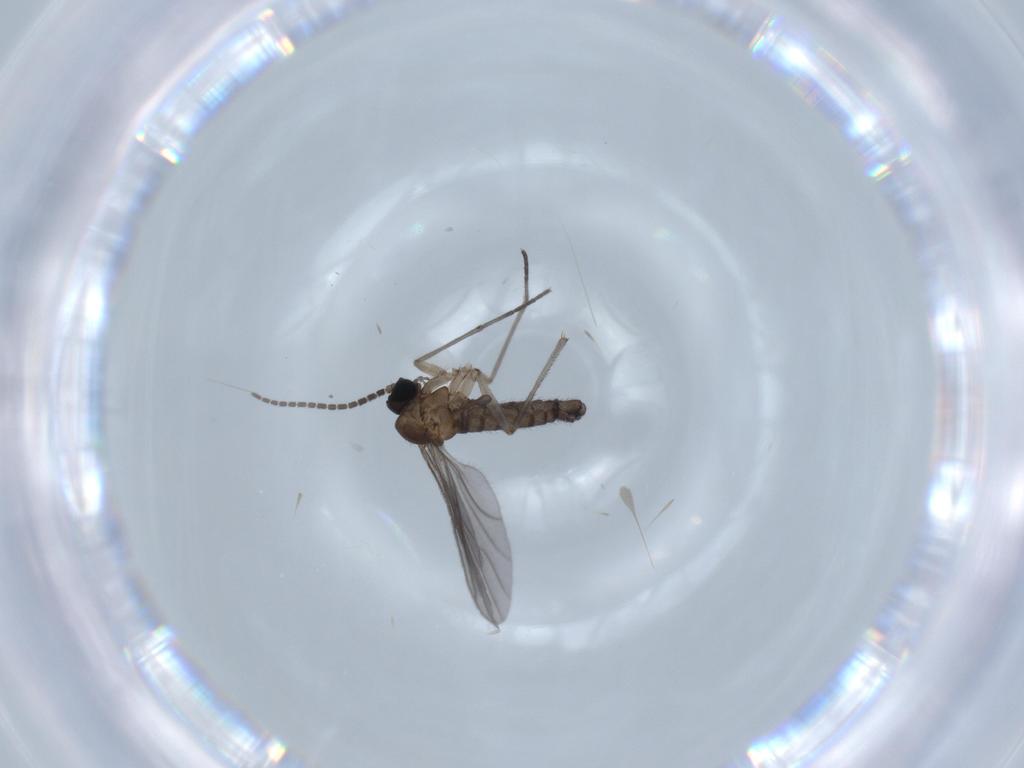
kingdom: Animalia
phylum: Arthropoda
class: Insecta
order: Diptera
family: Sciaridae
